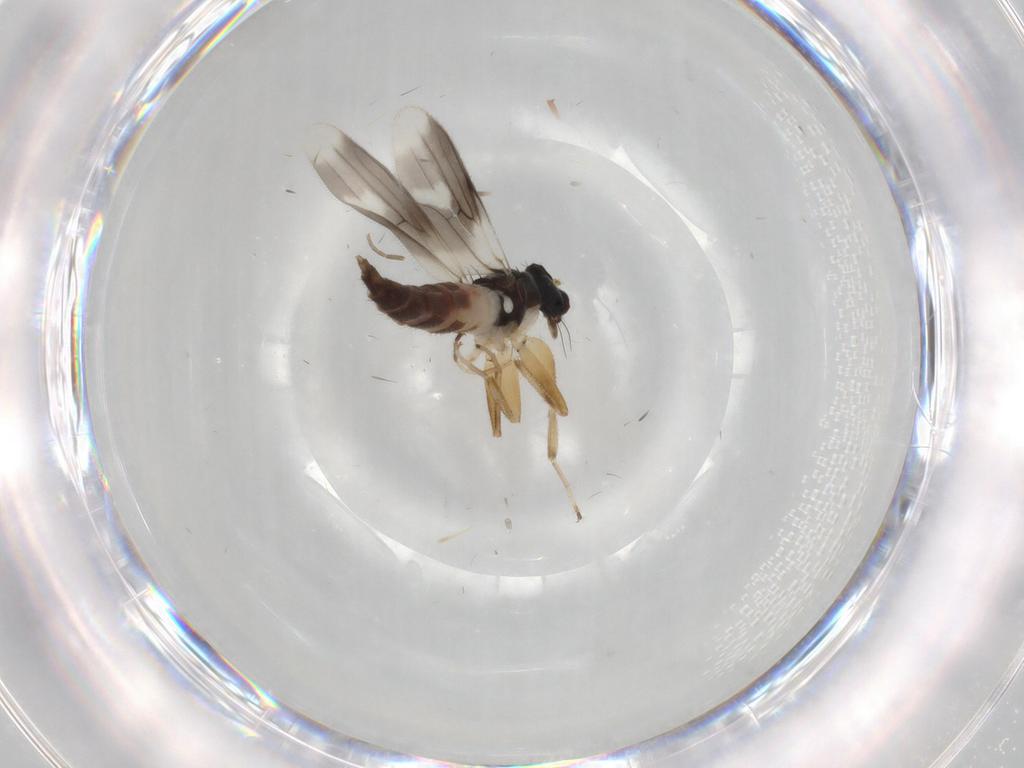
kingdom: Animalia
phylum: Arthropoda
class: Insecta
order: Diptera
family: Hybotidae
